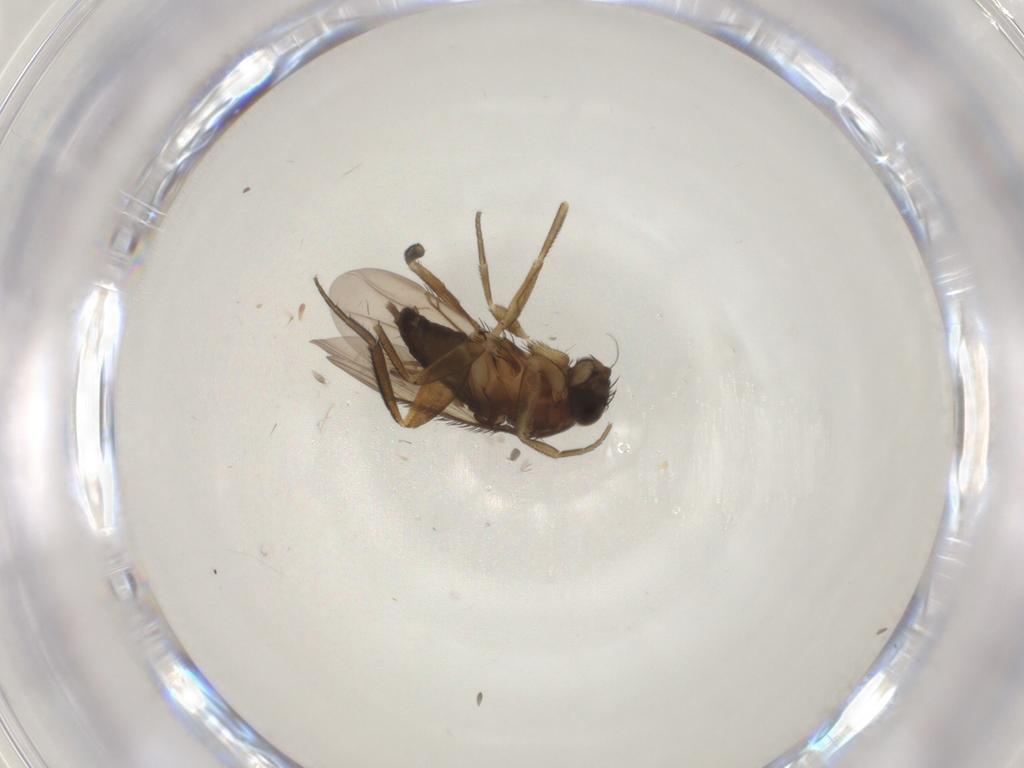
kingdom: Animalia
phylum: Arthropoda
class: Insecta
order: Diptera
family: Phoridae
